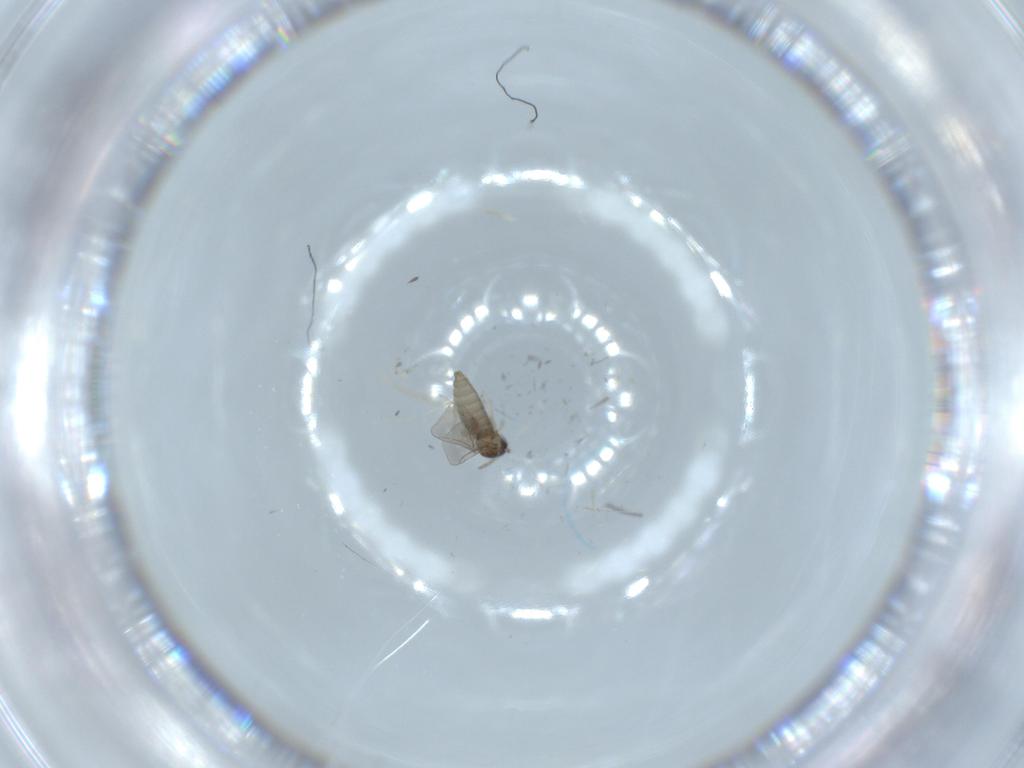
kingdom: Animalia
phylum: Arthropoda
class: Insecta
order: Diptera
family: Cecidomyiidae
